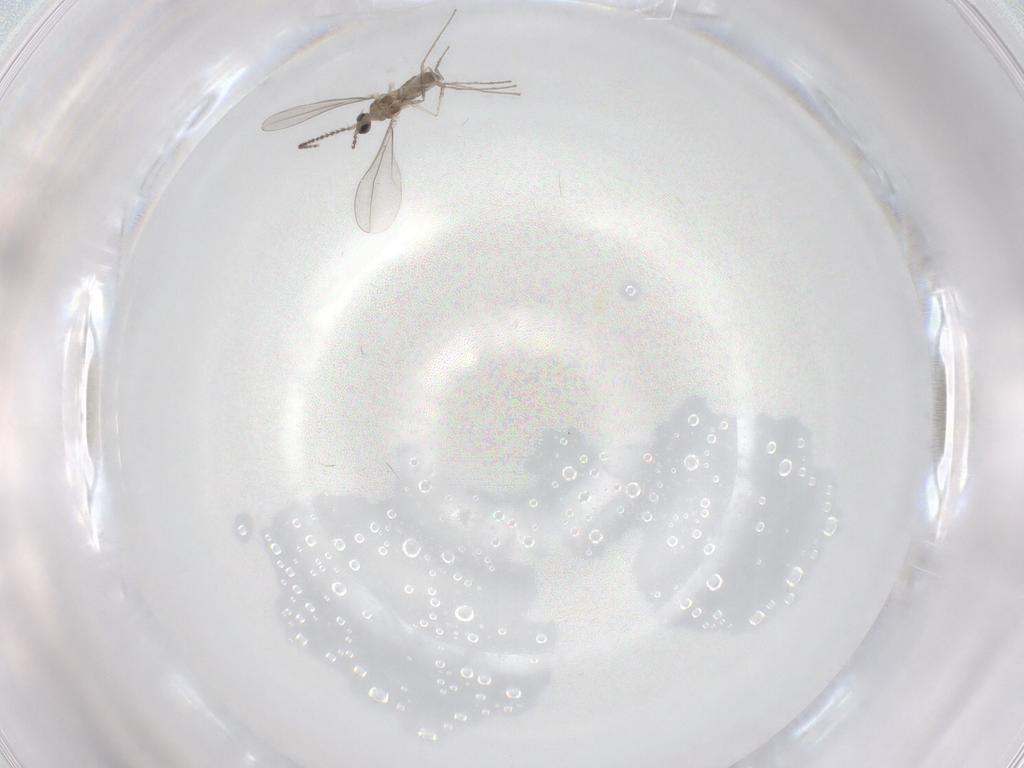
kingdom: Animalia
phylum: Arthropoda
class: Insecta
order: Diptera
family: Cecidomyiidae
